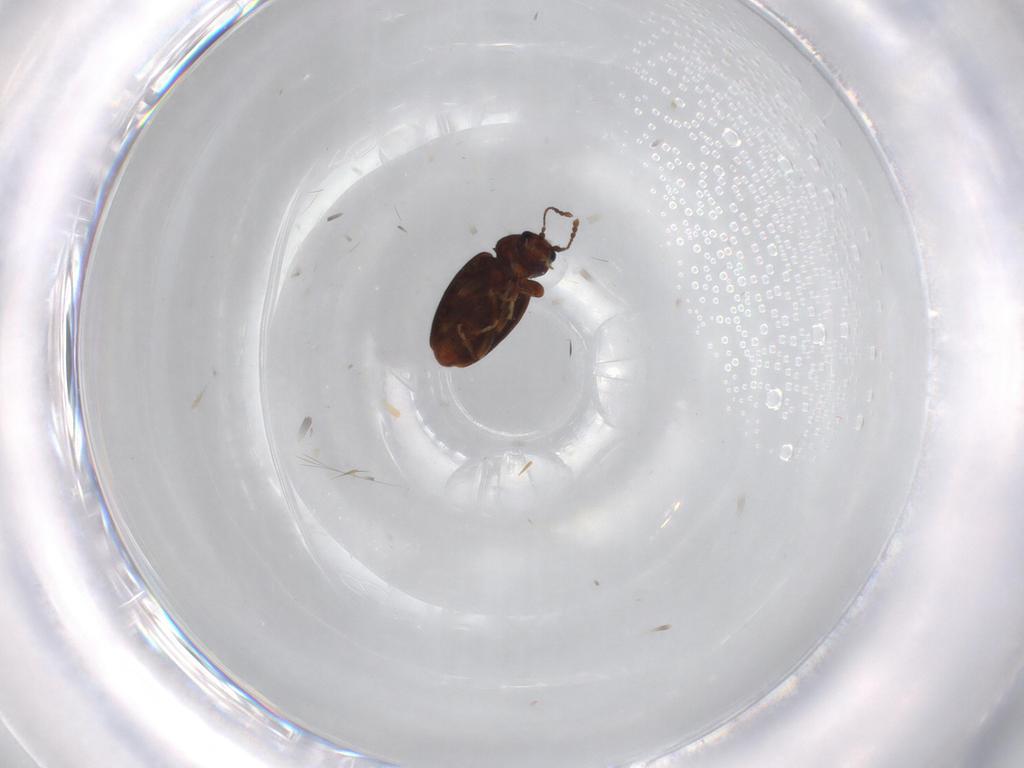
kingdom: Animalia
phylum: Arthropoda
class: Insecta
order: Coleoptera
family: Latridiidae
